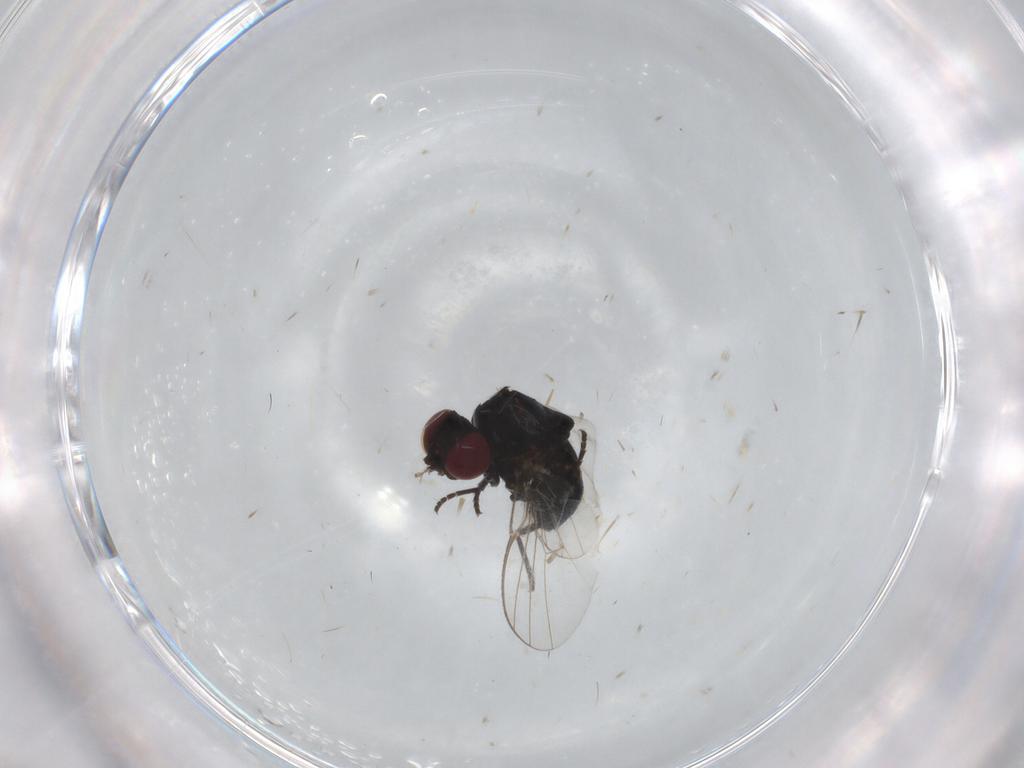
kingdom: Animalia
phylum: Arthropoda
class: Insecta
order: Diptera
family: Agromyzidae
